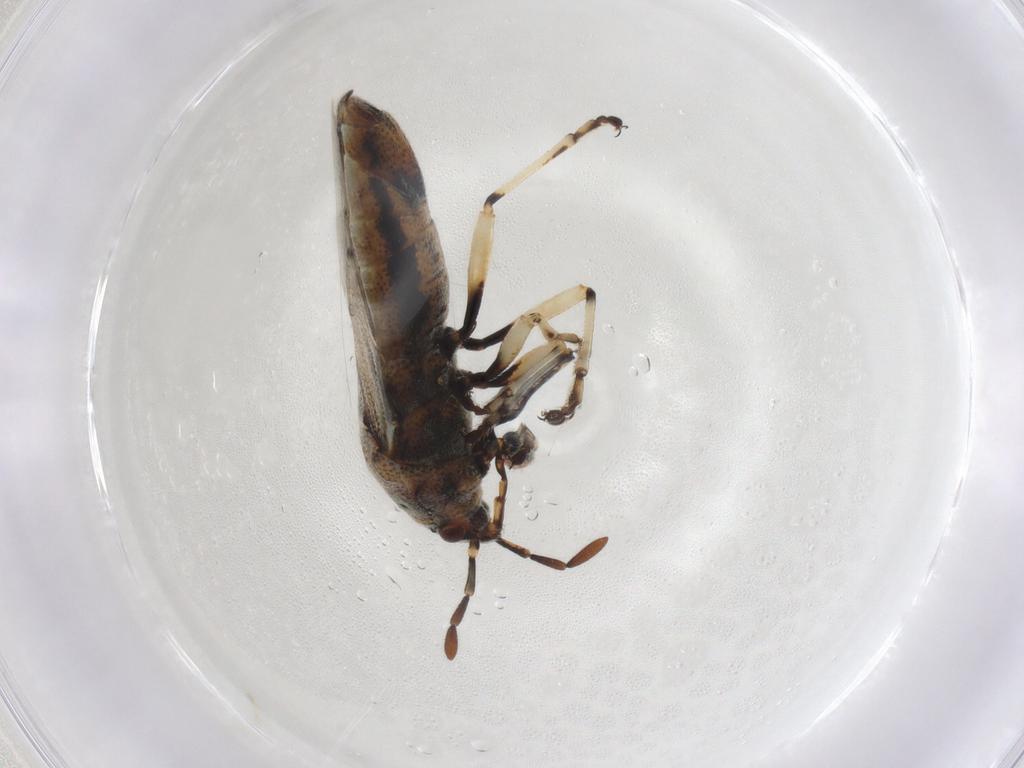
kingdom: Animalia
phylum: Arthropoda
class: Insecta
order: Hemiptera
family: Pachygronthidae
